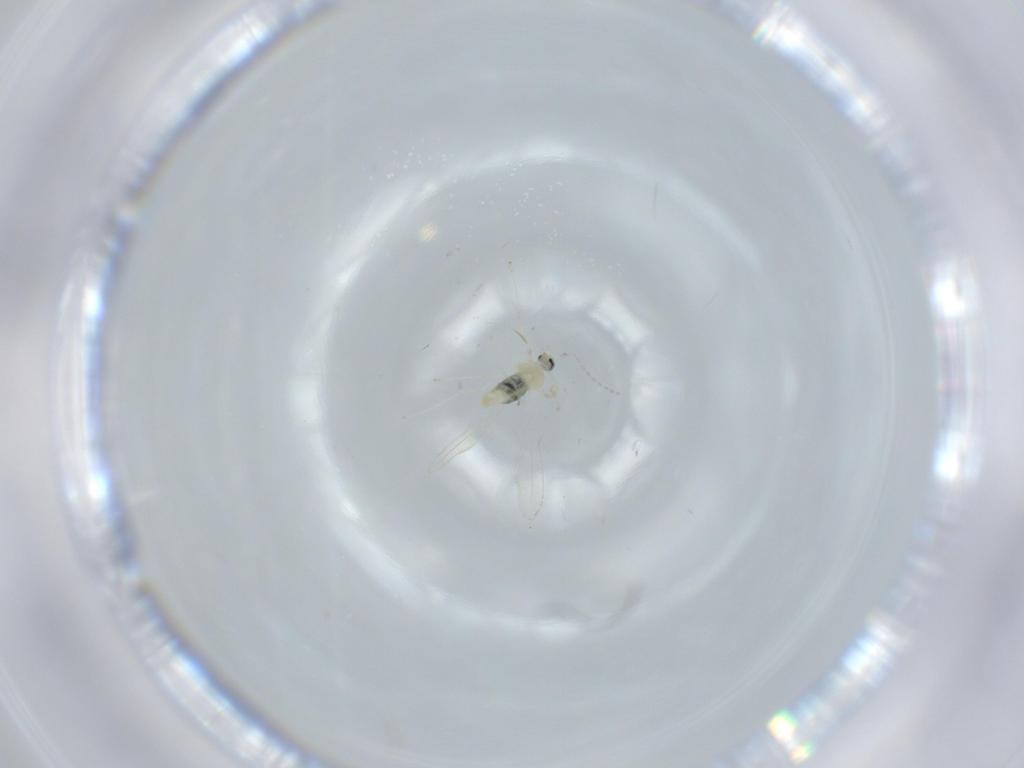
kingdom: Animalia
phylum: Arthropoda
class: Insecta
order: Diptera
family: Cecidomyiidae
